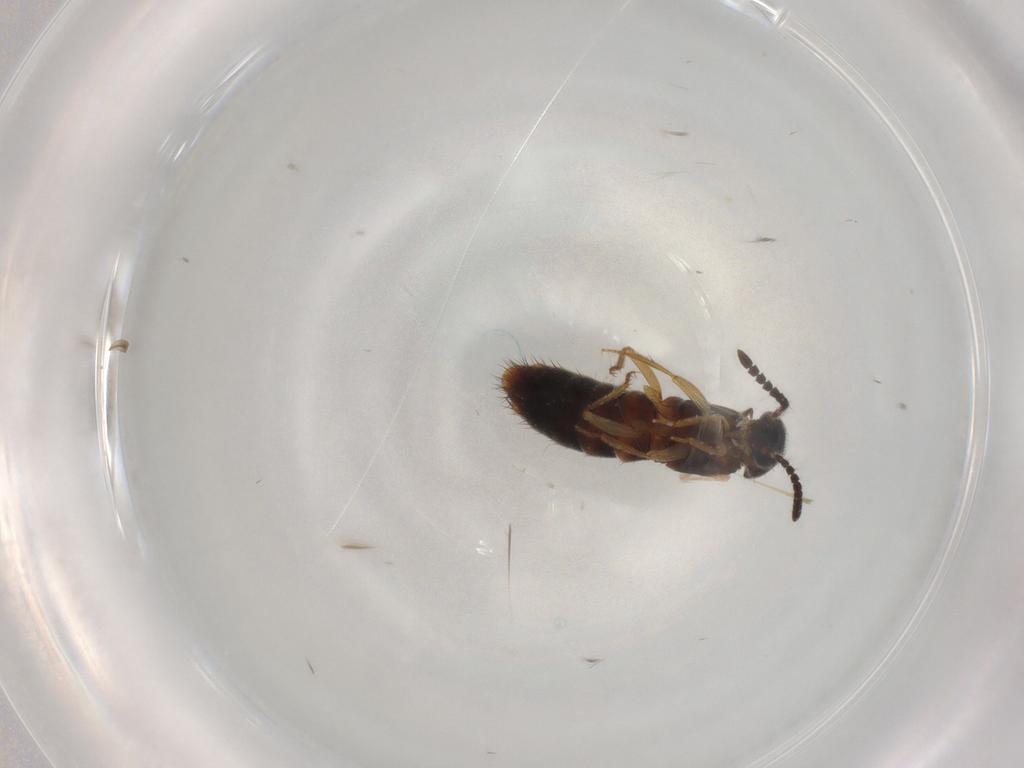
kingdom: Animalia
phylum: Arthropoda
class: Insecta
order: Coleoptera
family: Staphylinidae
